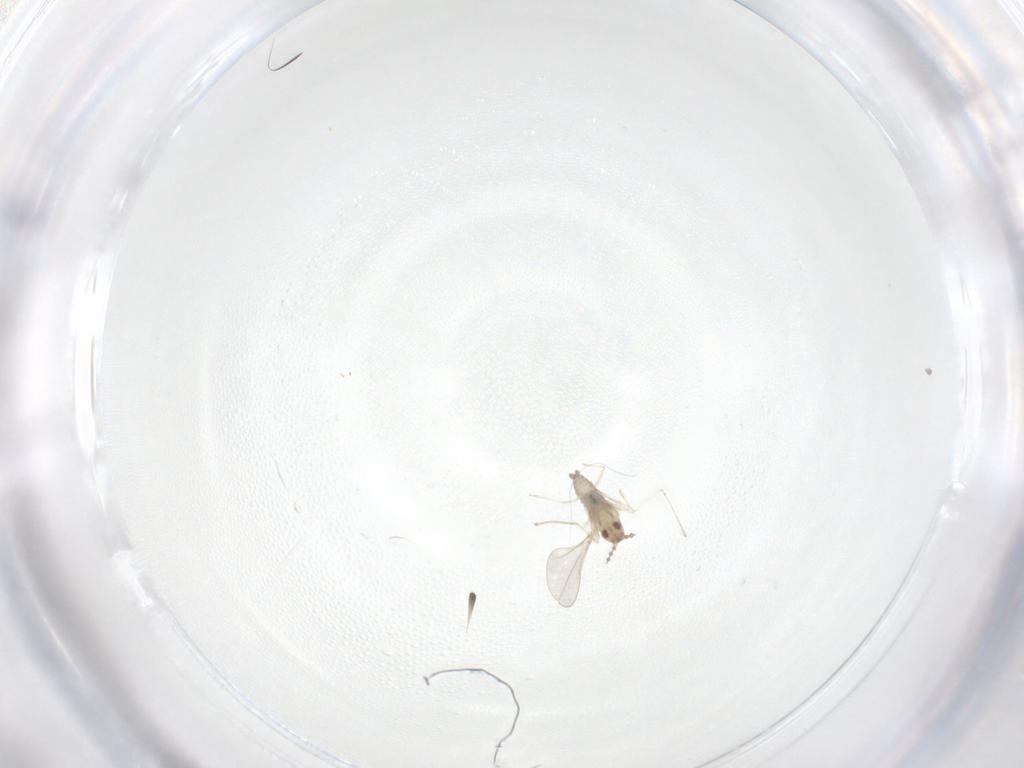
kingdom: Animalia
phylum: Arthropoda
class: Insecta
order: Diptera
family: Cecidomyiidae
